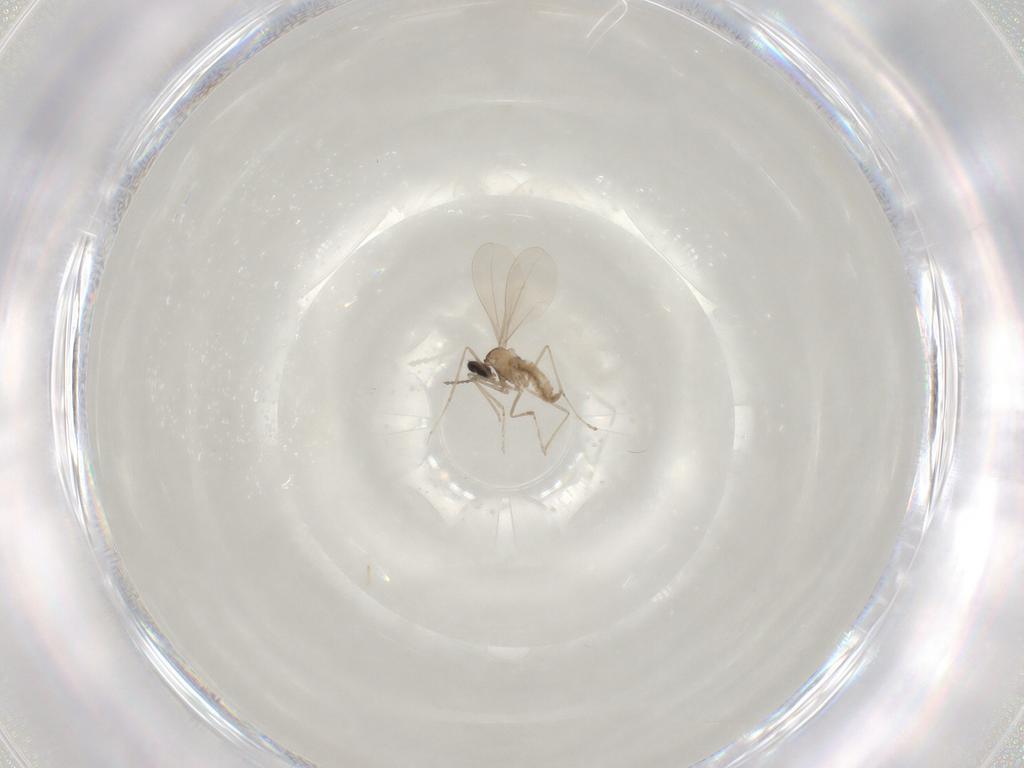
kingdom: Animalia
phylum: Arthropoda
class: Insecta
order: Diptera
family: Cecidomyiidae
